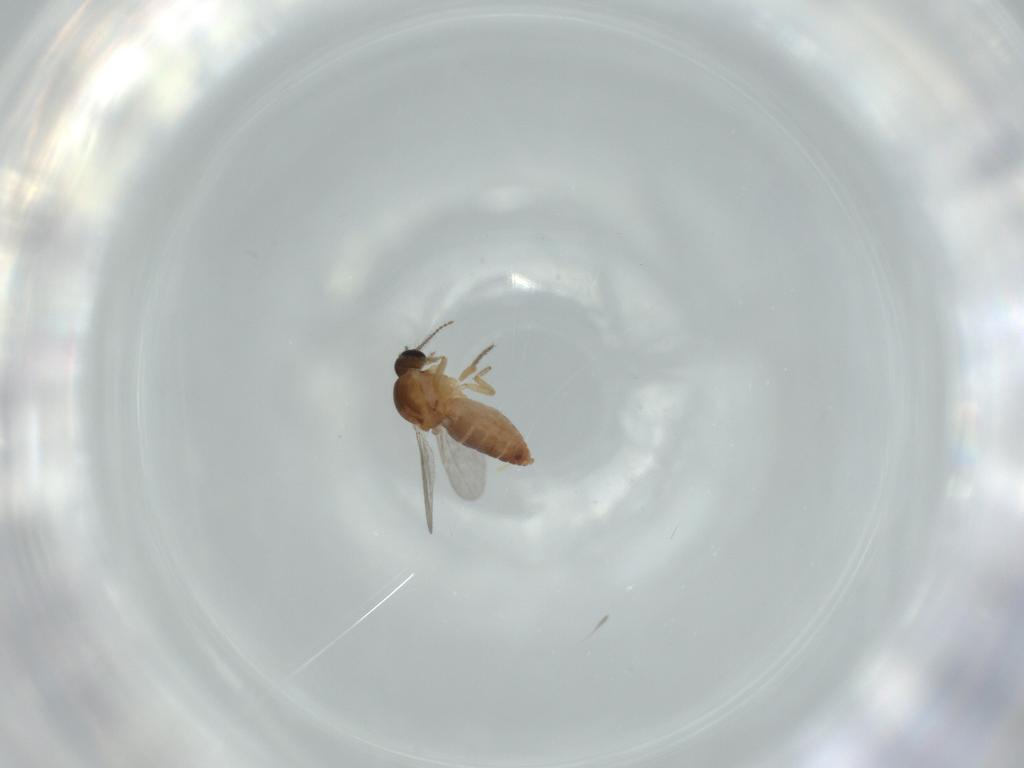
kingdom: Animalia
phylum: Arthropoda
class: Insecta
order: Diptera
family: Ceratopogonidae
